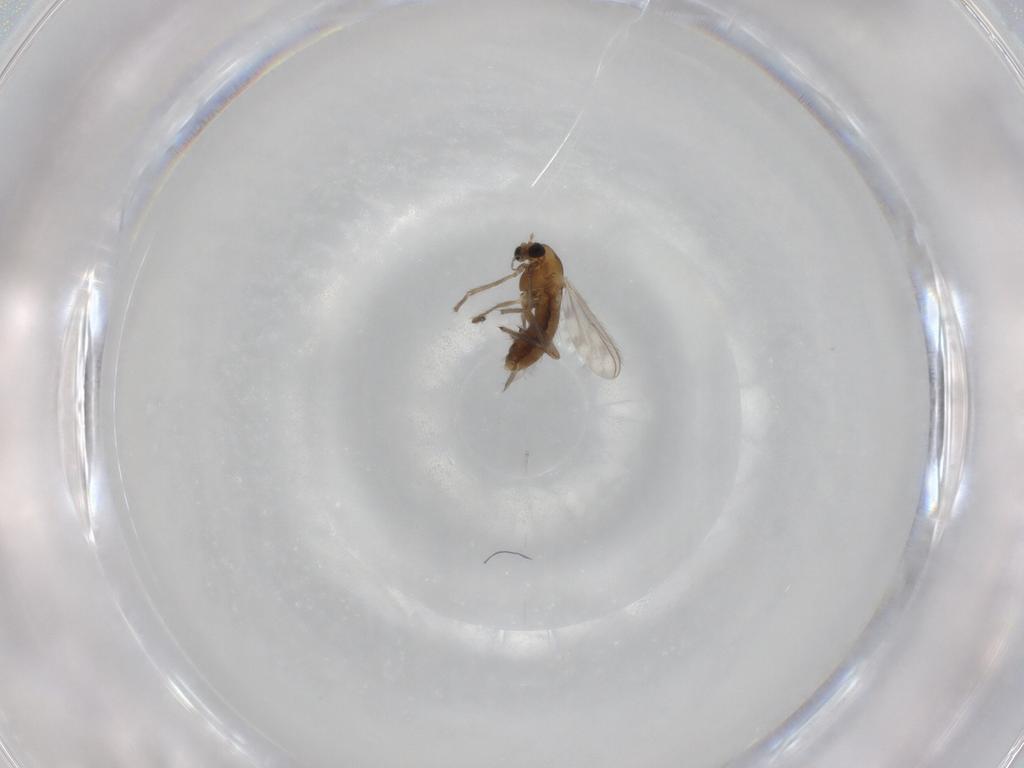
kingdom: Animalia
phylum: Arthropoda
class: Insecta
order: Diptera
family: Chironomidae
